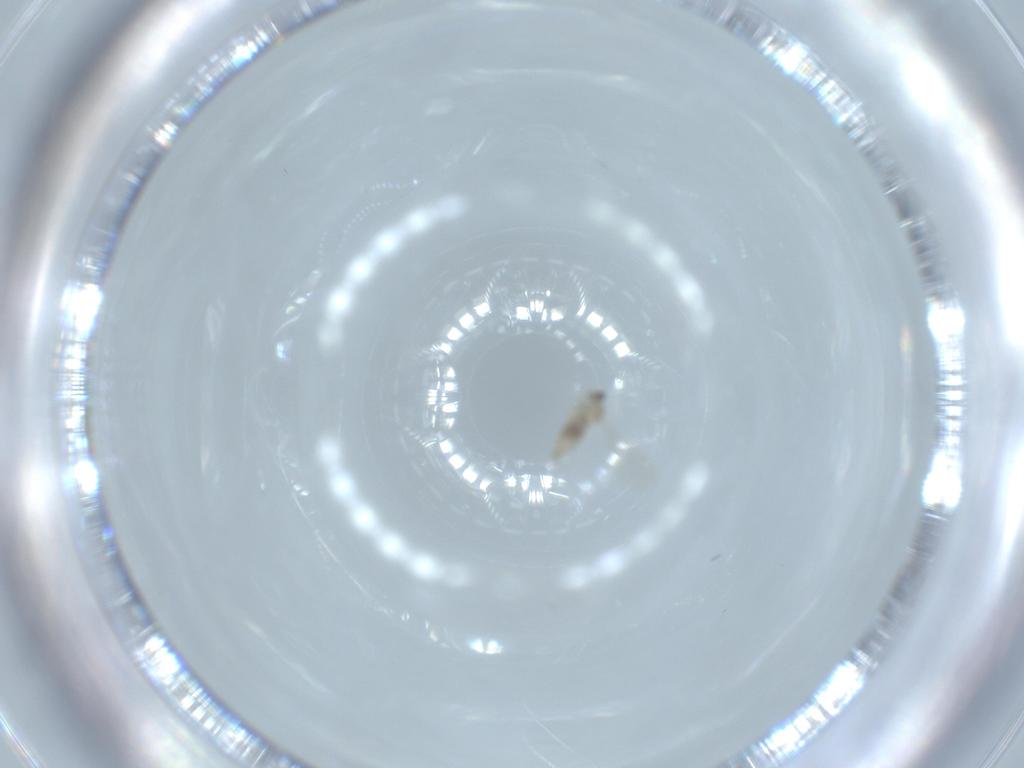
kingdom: Animalia
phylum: Arthropoda
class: Insecta
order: Diptera
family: Cecidomyiidae
